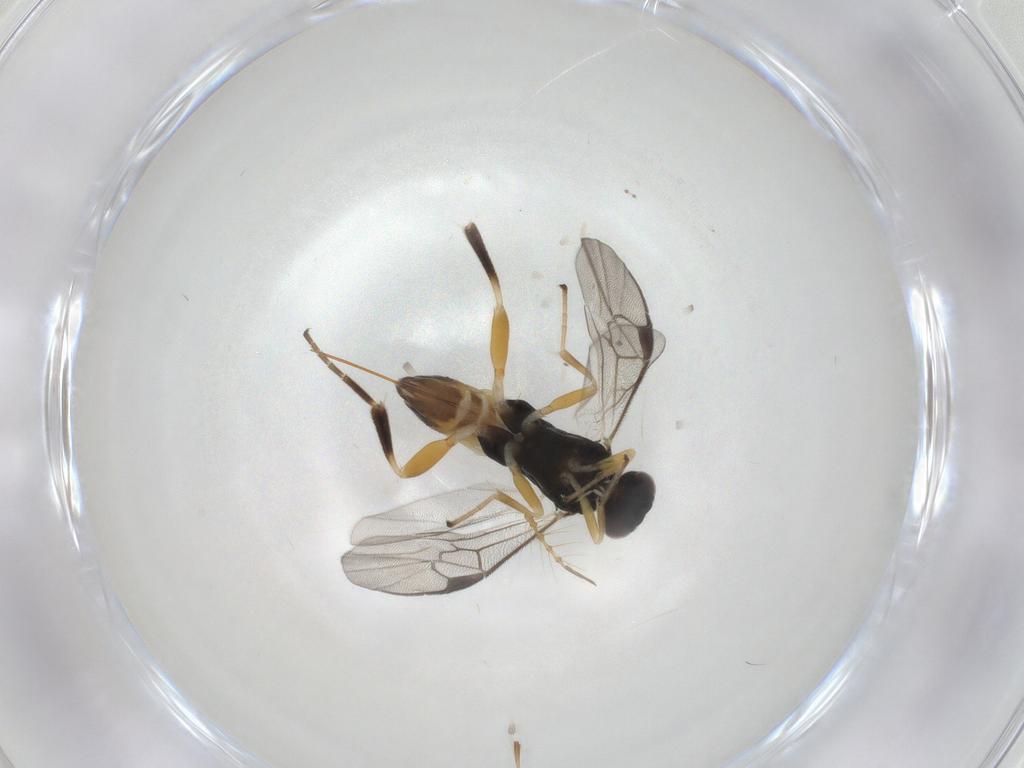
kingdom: Animalia
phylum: Arthropoda
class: Insecta
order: Hymenoptera
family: Braconidae
